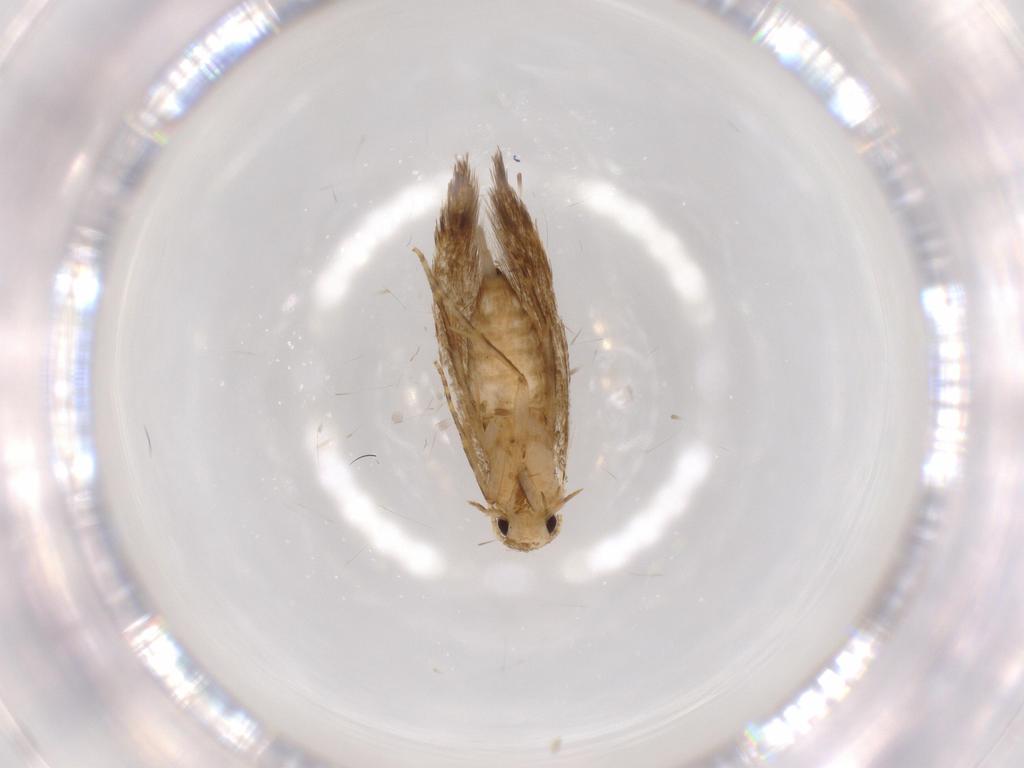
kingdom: Animalia
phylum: Arthropoda
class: Insecta
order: Lepidoptera
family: Tineidae
